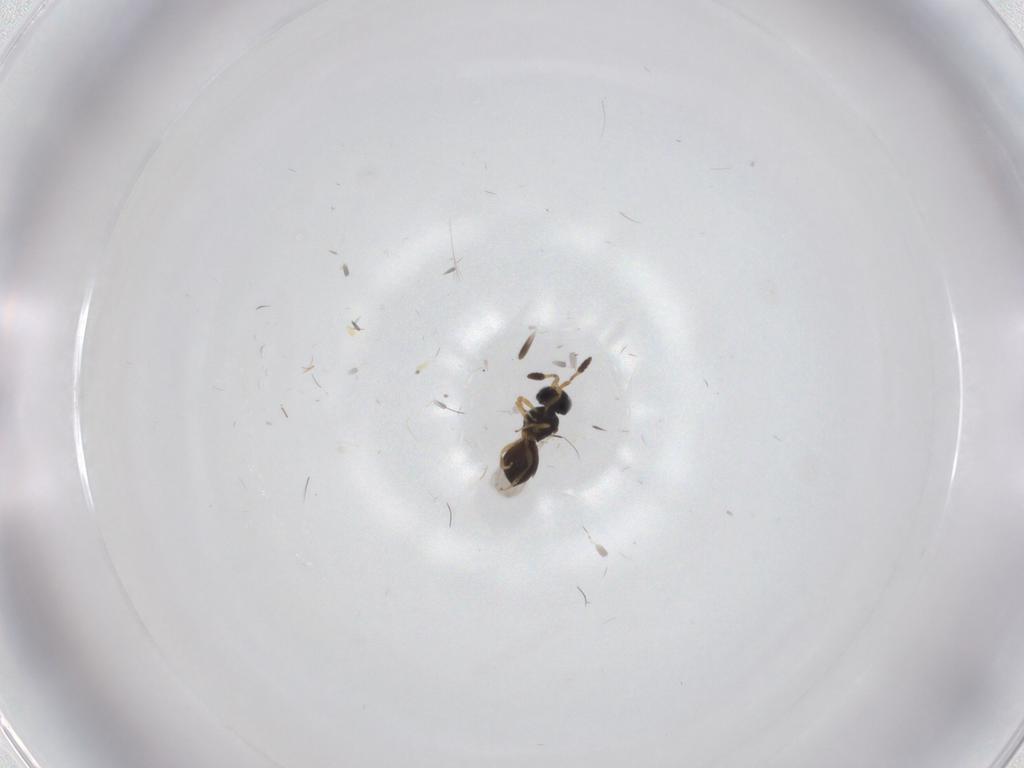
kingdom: Animalia
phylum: Arthropoda
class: Insecta
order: Hymenoptera
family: Scelionidae
